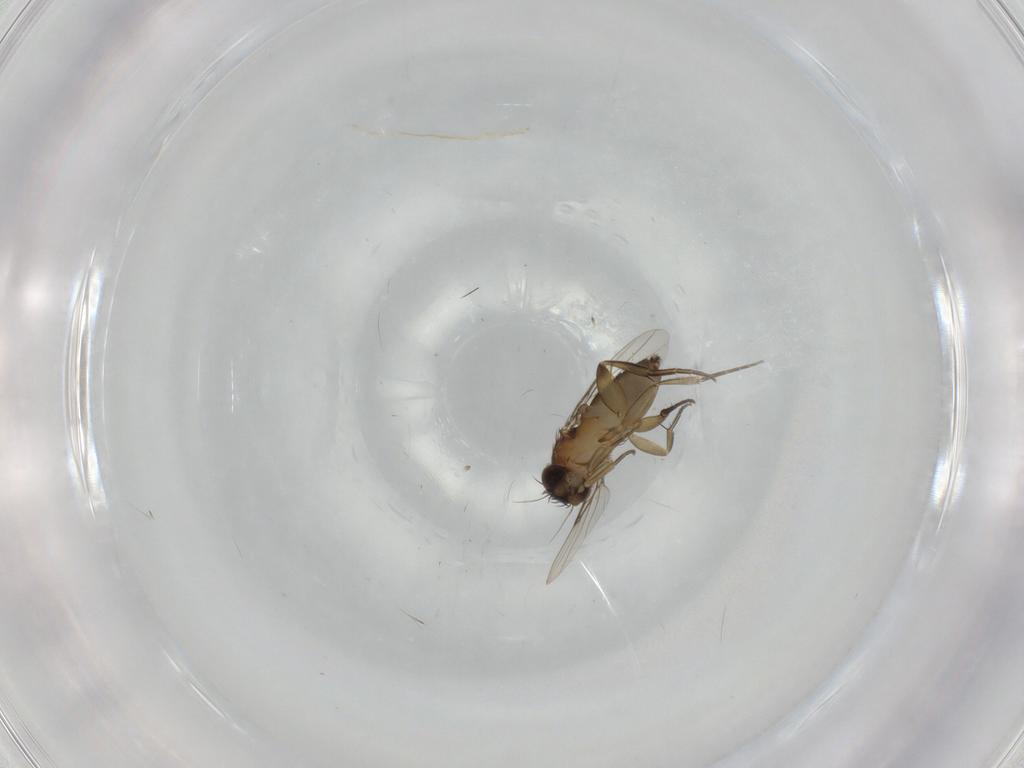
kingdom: Animalia
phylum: Arthropoda
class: Insecta
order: Diptera
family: Phoridae
